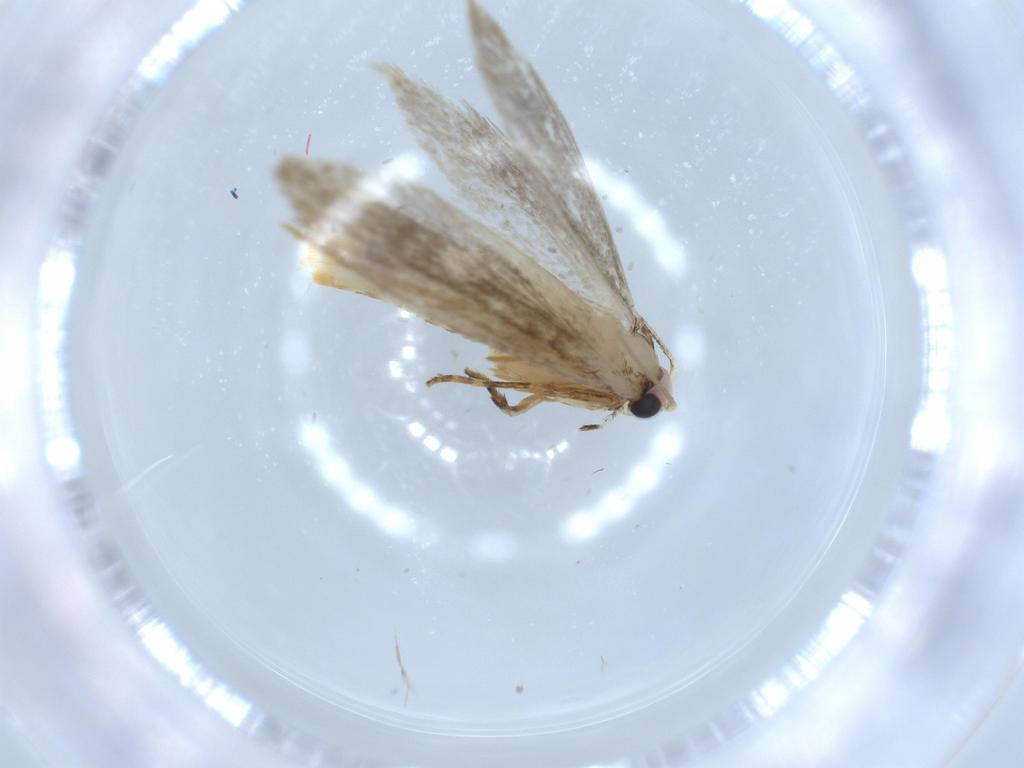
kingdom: Animalia
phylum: Arthropoda
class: Insecta
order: Lepidoptera
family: Tineidae
